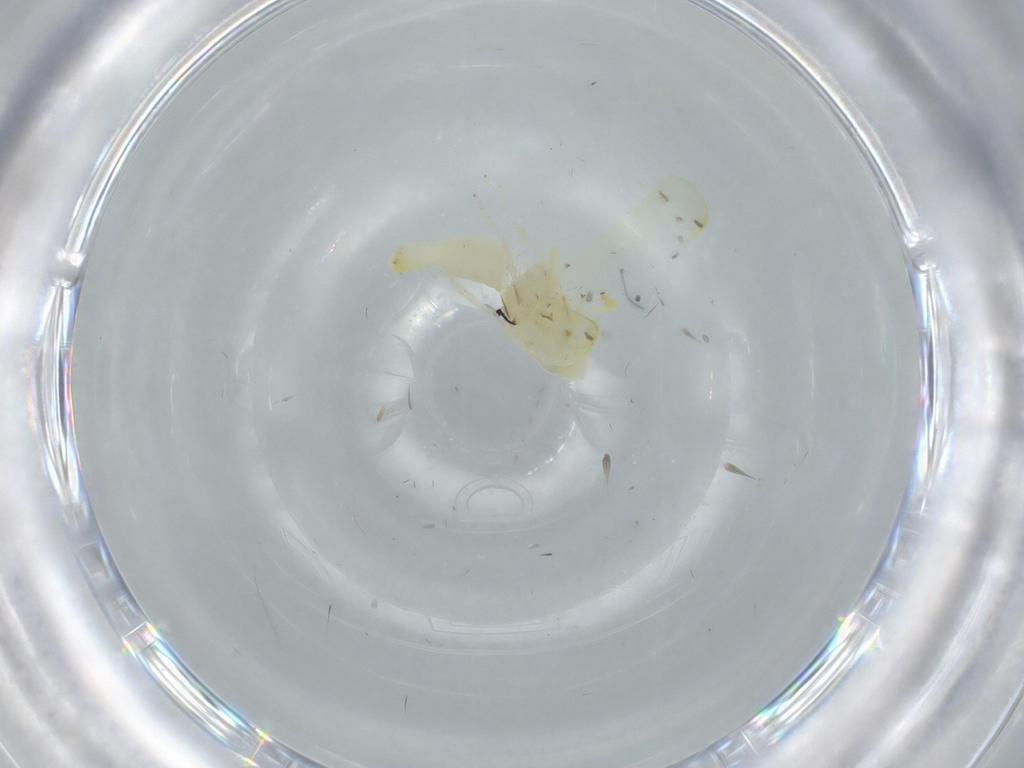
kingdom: Animalia
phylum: Arthropoda
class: Insecta
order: Hemiptera
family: Cicadellidae
